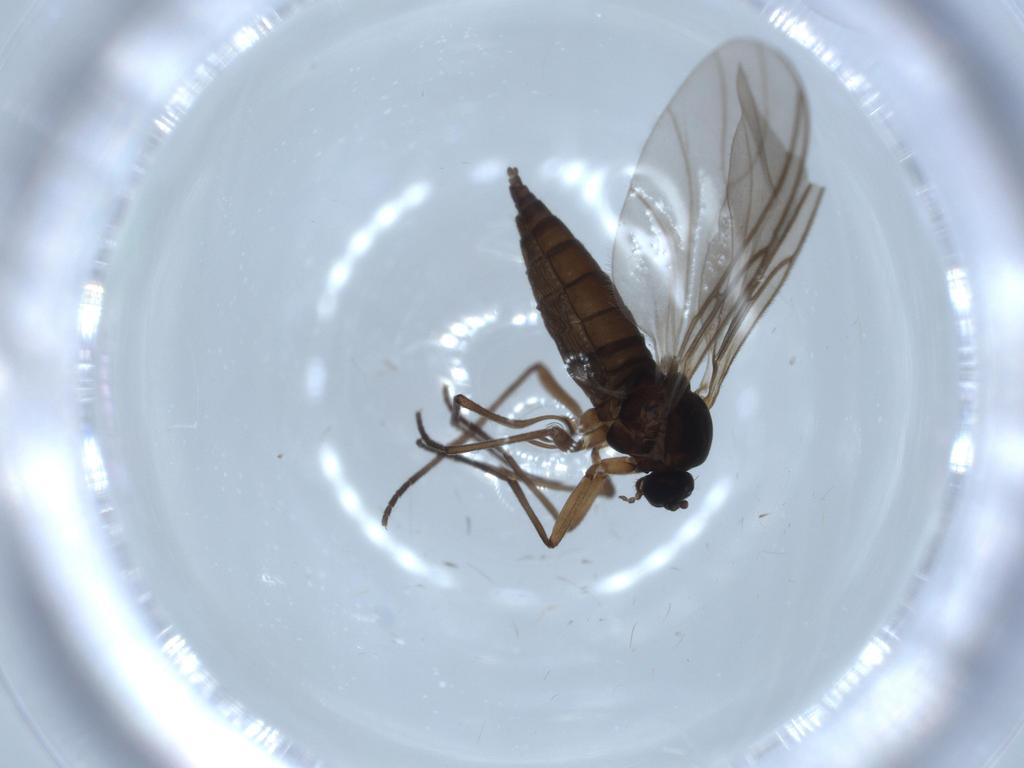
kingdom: Animalia
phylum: Arthropoda
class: Insecta
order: Diptera
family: Sciaridae
